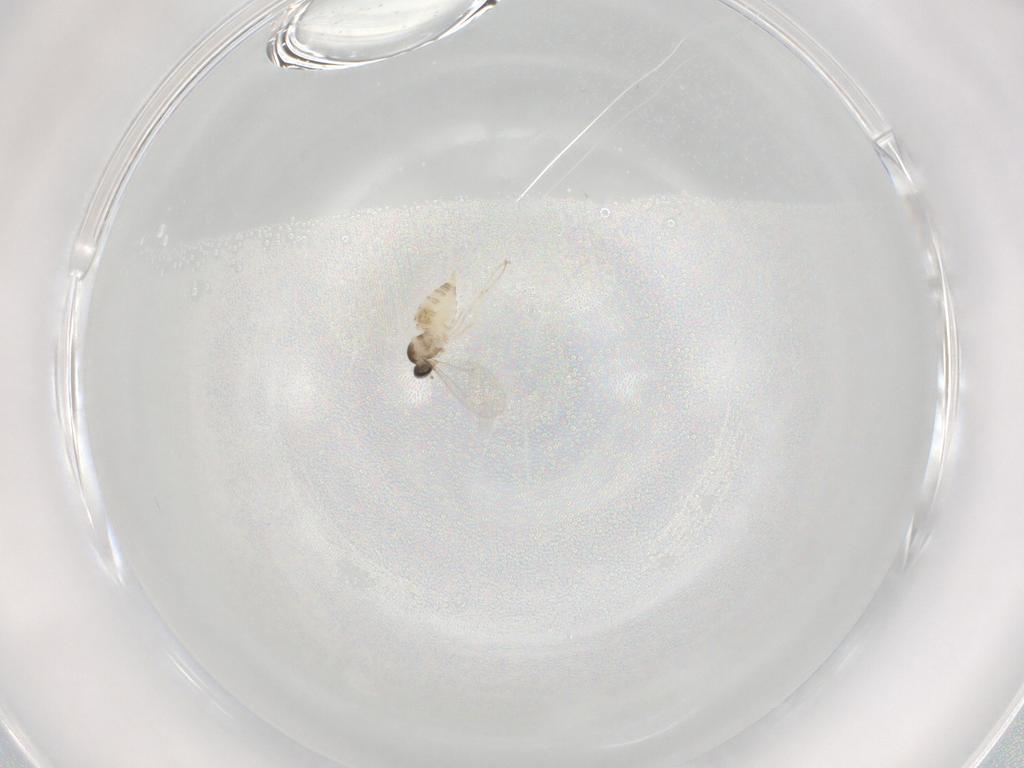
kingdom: Animalia
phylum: Arthropoda
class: Insecta
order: Diptera
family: Cecidomyiidae
